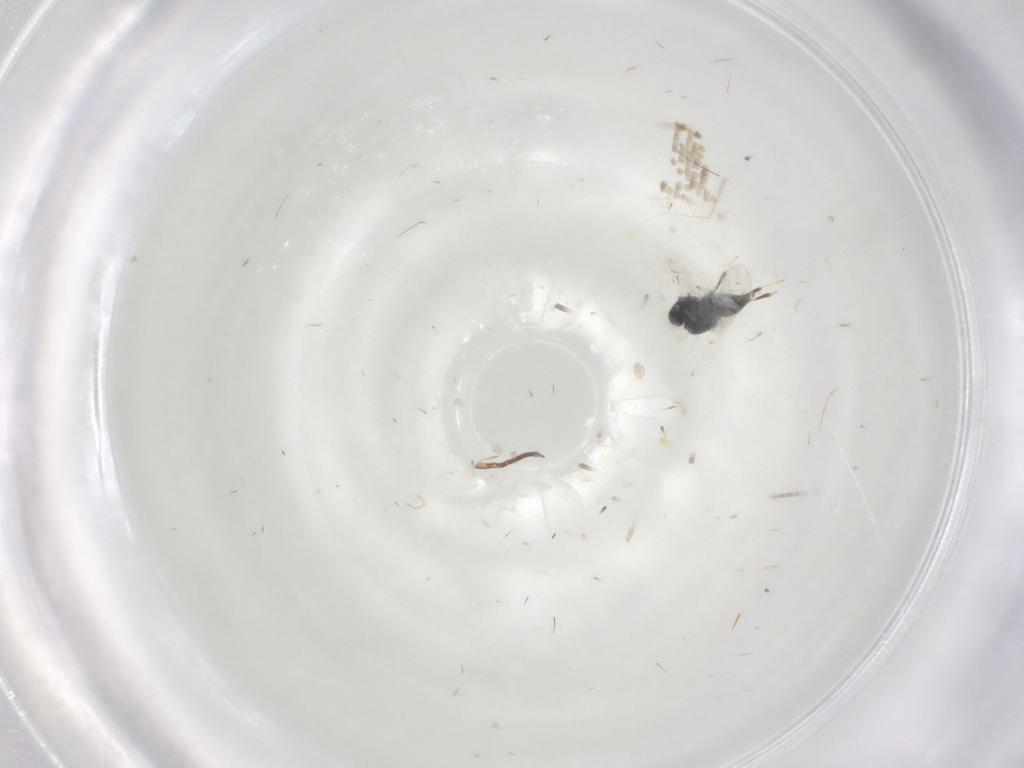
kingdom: Animalia
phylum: Arthropoda
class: Insecta
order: Hymenoptera
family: Scelionidae
